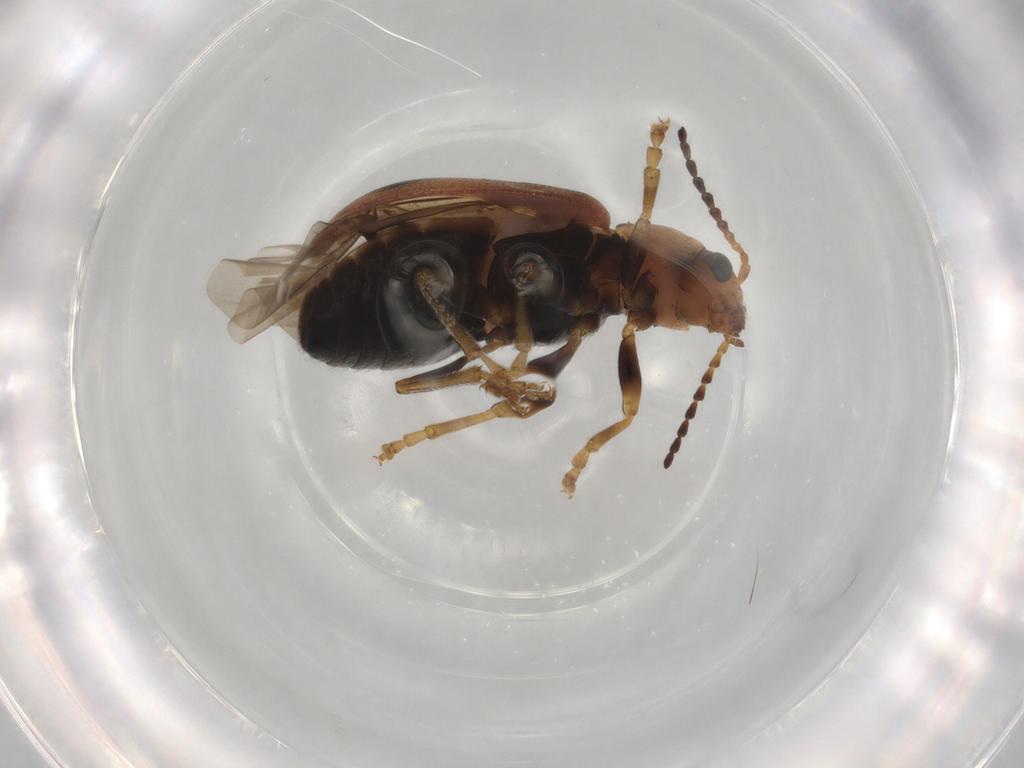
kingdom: Animalia
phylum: Arthropoda
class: Insecta
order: Coleoptera
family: Chrysomelidae
